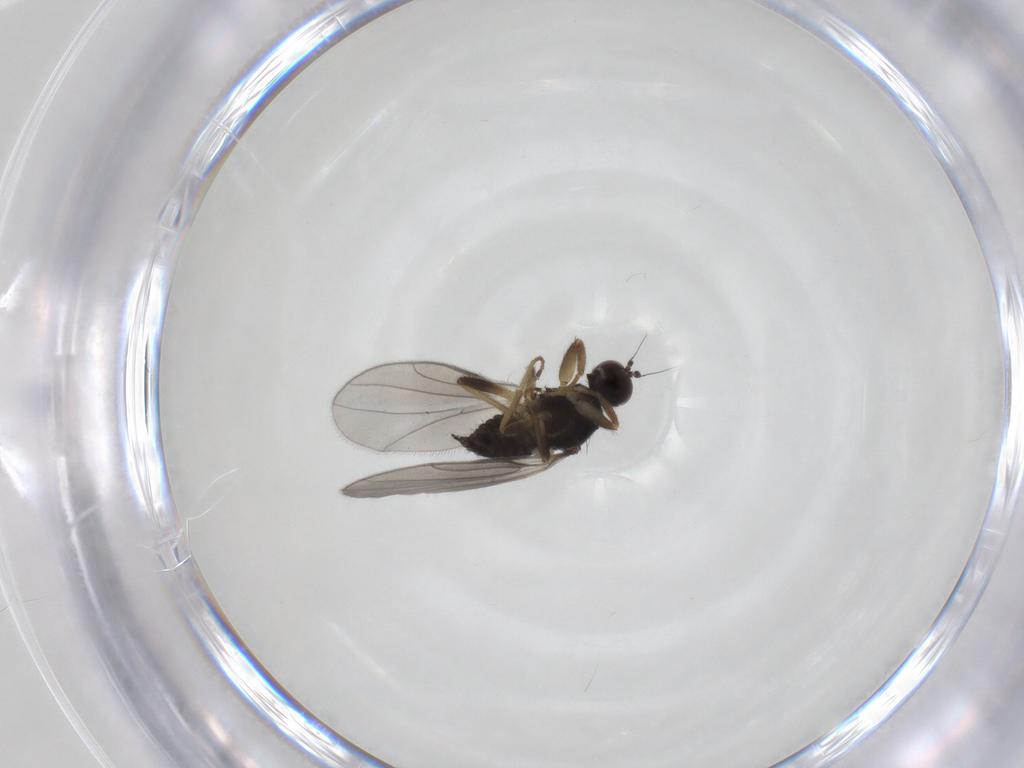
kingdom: Animalia
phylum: Arthropoda
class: Insecta
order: Diptera
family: Hybotidae
